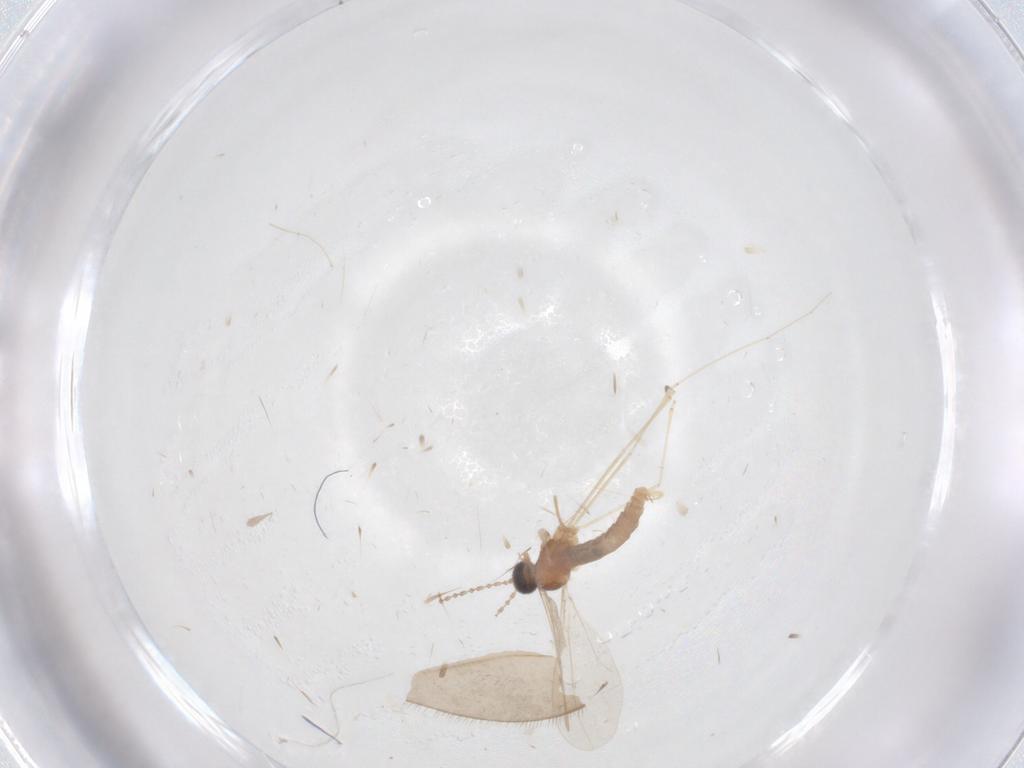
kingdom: Animalia
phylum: Arthropoda
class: Insecta
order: Diptera
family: Cecidomyiidae
